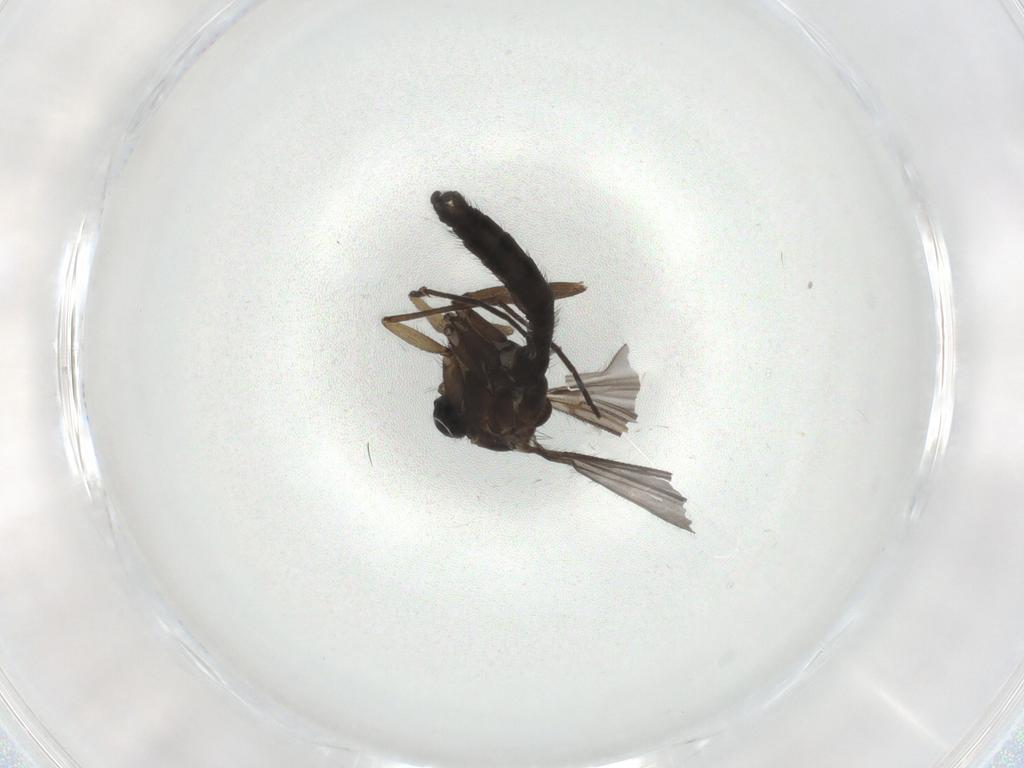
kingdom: Animalia
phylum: Arthropoda
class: Insecta
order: Diptera
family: Sciaridae
